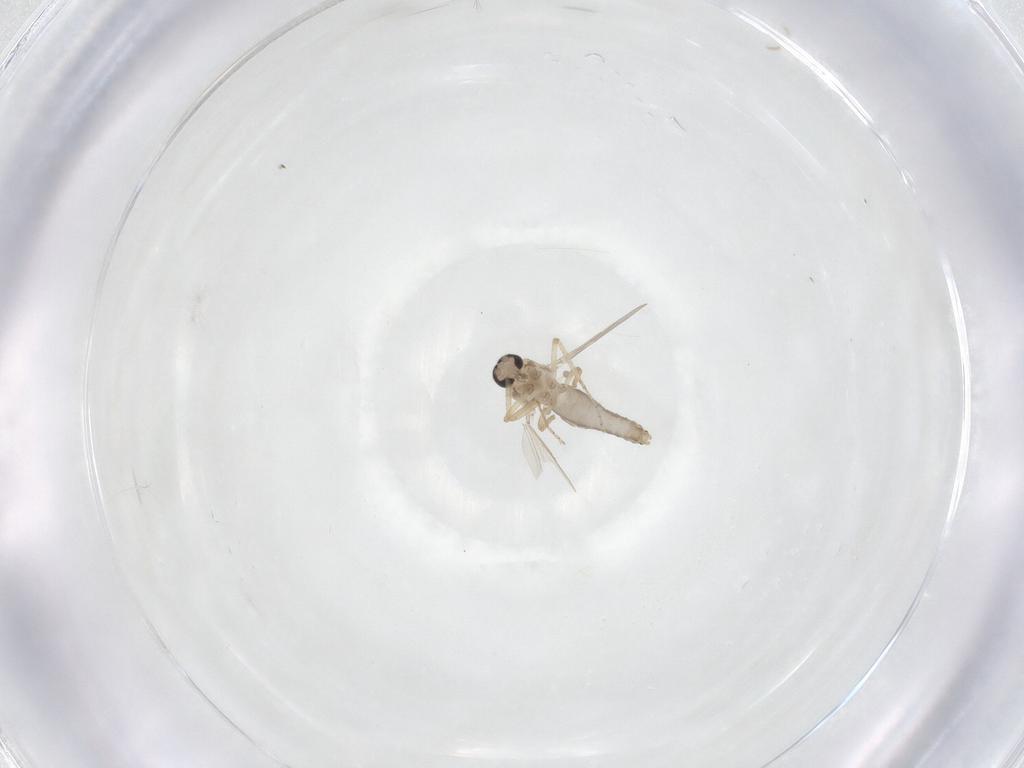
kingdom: Animalia
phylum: Arthropoda
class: Insecta
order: Diptera
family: Ceratopogonidae
